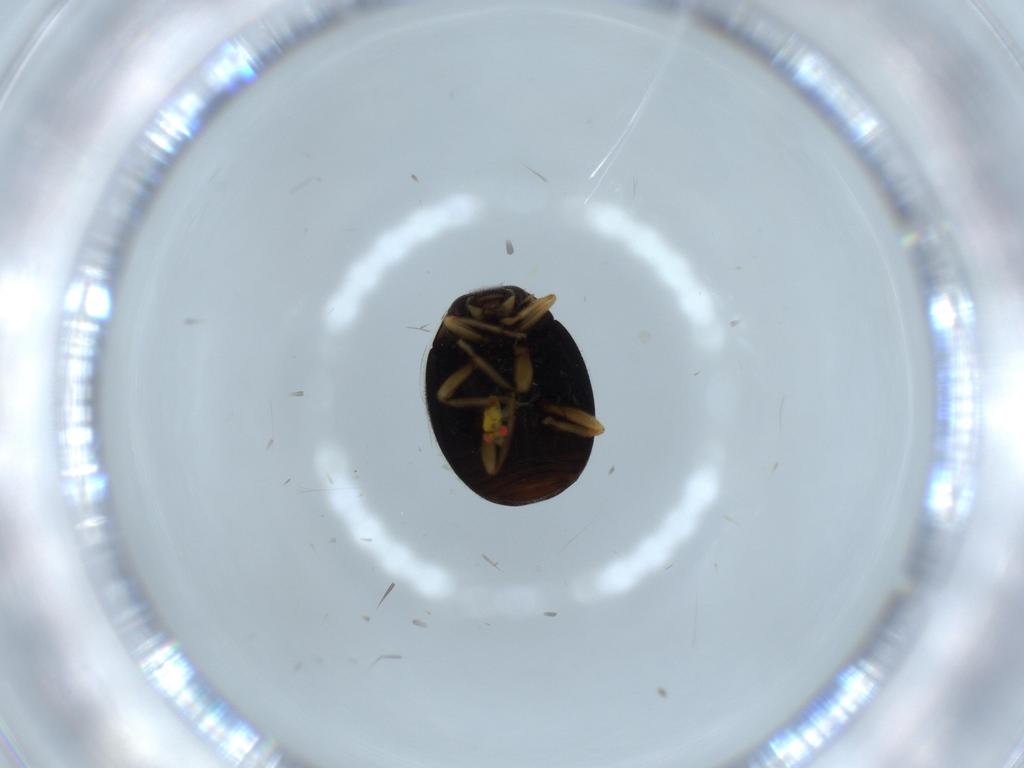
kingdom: Animalia
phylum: Arthropoda
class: Insecta
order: Coleoptera
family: Coccinellidae
